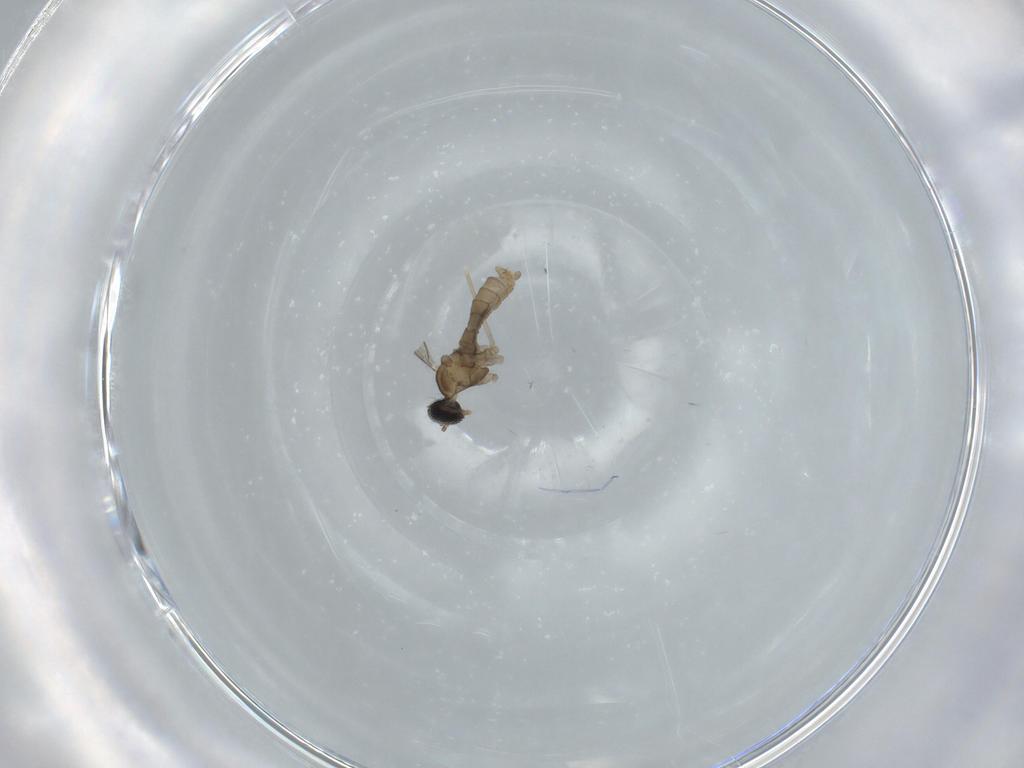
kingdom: Animalia
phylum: Arthropoda
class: Insecta
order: Diptera
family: Cecidomyiidae
